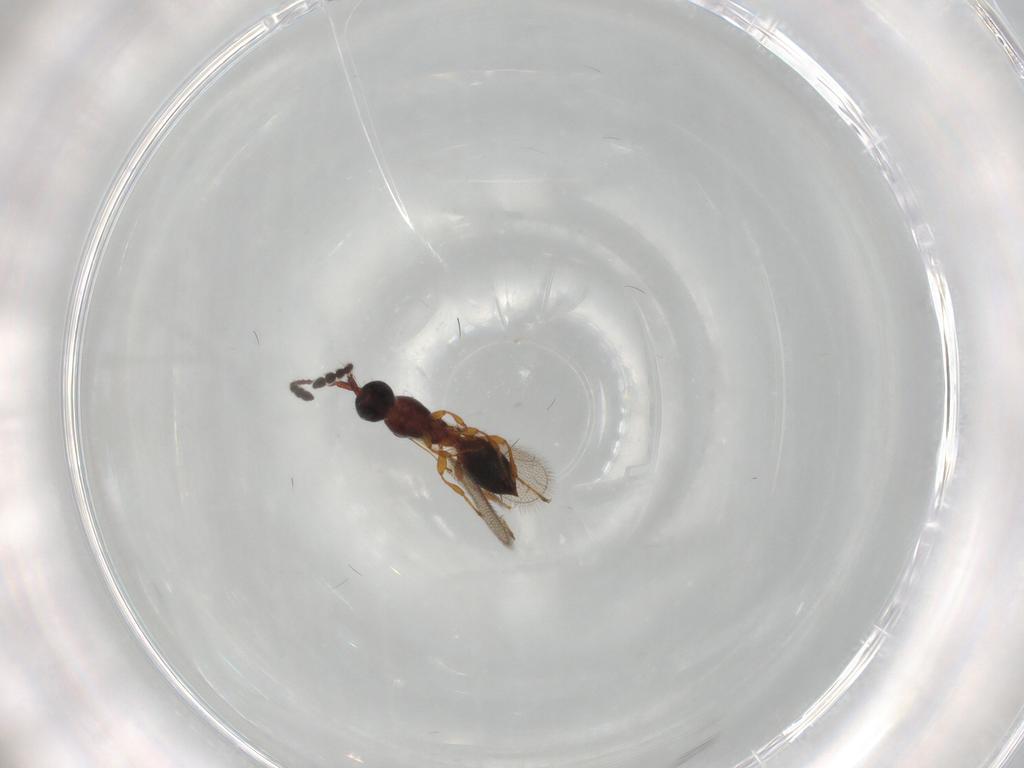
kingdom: Animalia
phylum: Arthropoda
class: Insecta
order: Hymenoptera
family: Diapriidae
